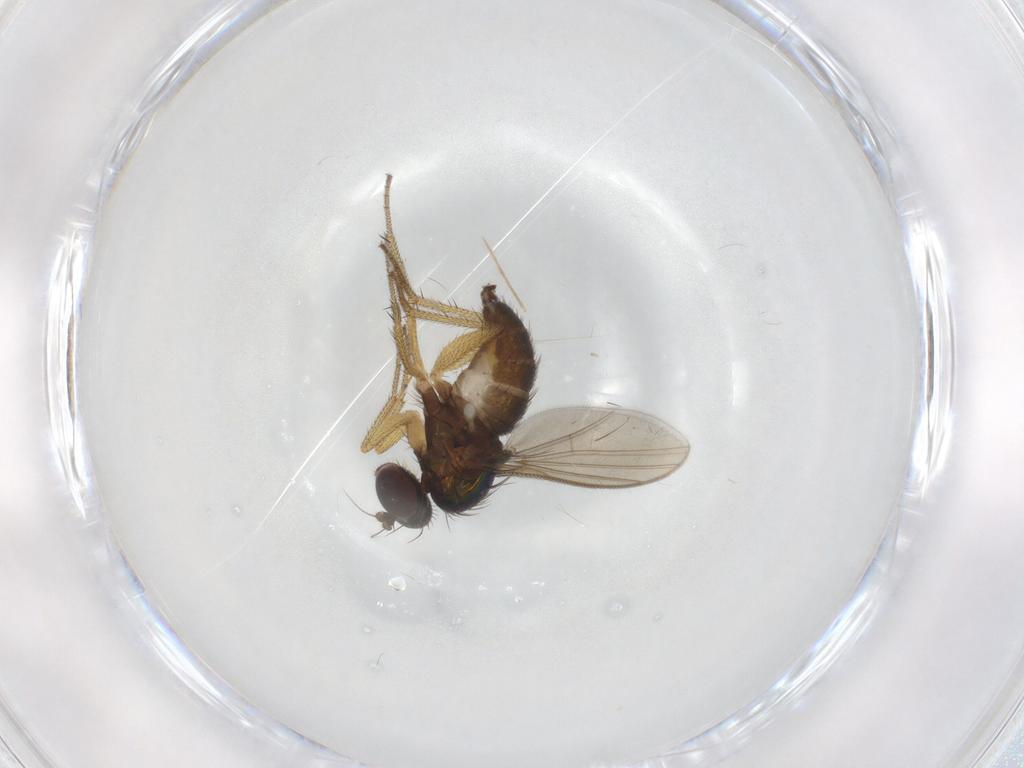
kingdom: Animalia
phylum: Arthropoda
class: Insecta
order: Diptera
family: Dolichopodidae
